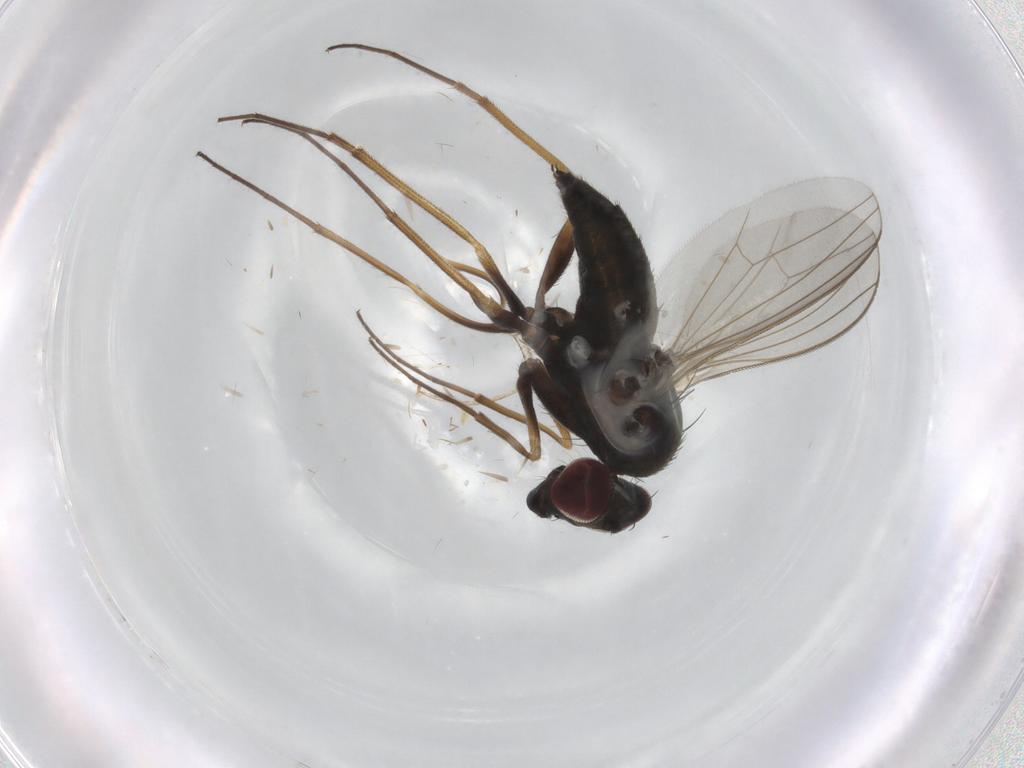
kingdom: Animalia
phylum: Arthropoda
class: Insecta
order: Diptera
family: Dolichopodidae
